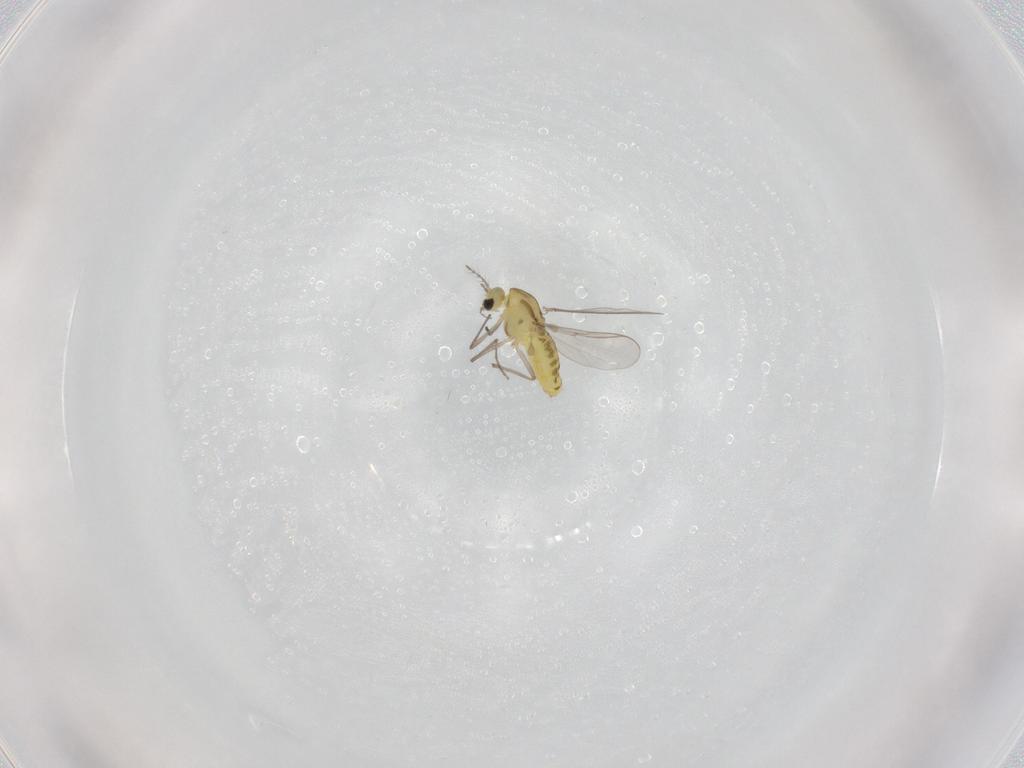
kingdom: Animalia
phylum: Arthropoda
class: Insecta
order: Diptera
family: Chironomidae
